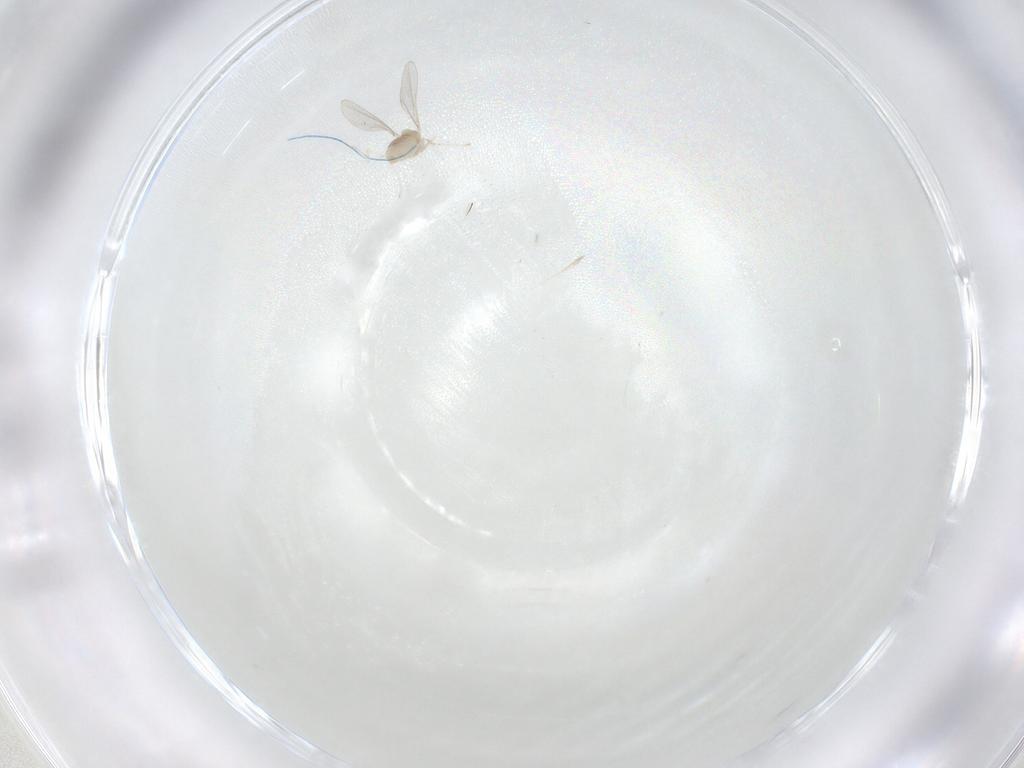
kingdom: Animalia
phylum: Arthropoda
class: Insecta
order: Diptera
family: Cecidomyiidae
